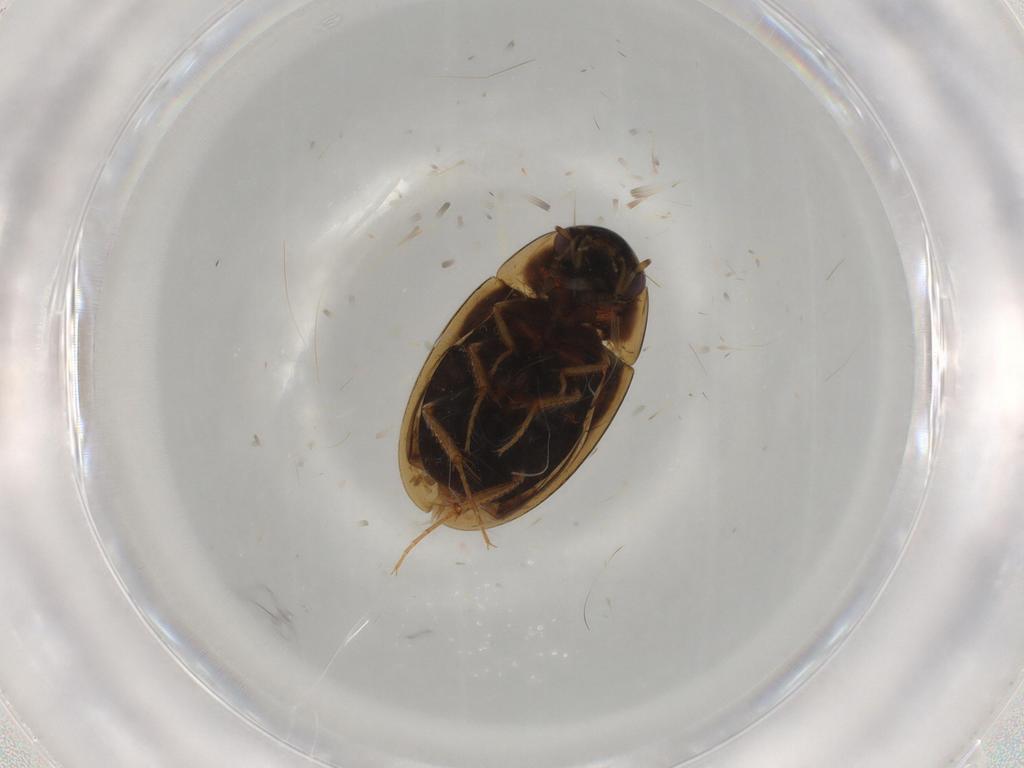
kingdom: Animalia
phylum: Arthropoda
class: Insecta
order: Coleoptera
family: Hydrophilidae
